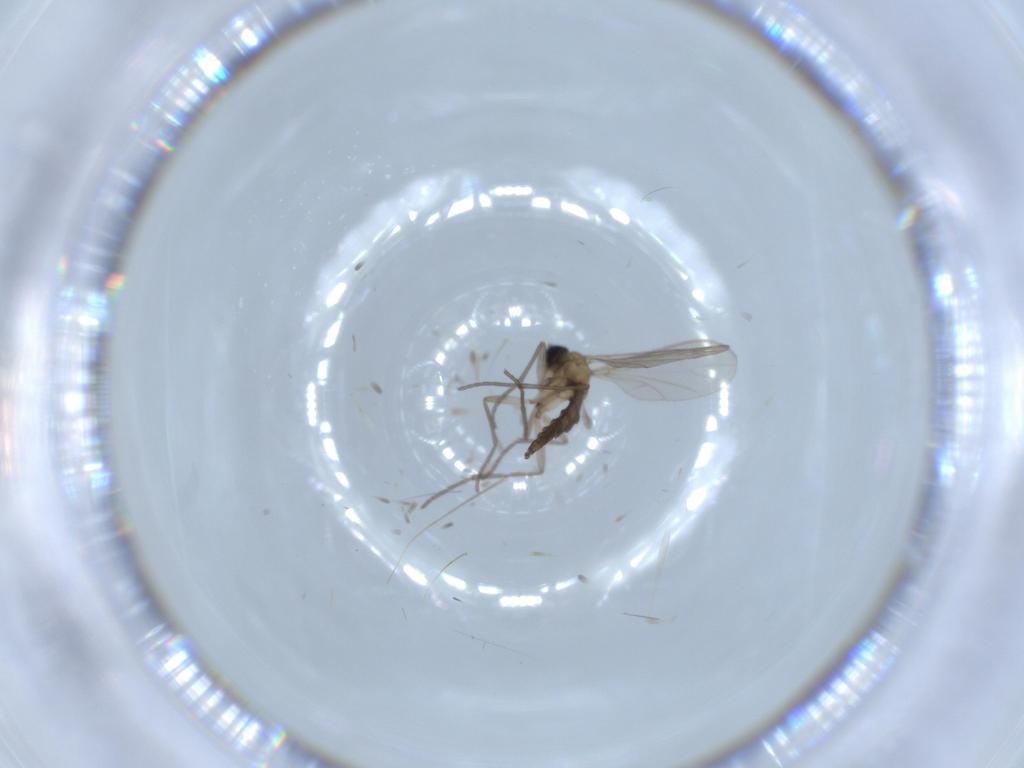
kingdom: Animalia
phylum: Arthropoda
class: Insecta
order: Diptera
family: Sciaridae
